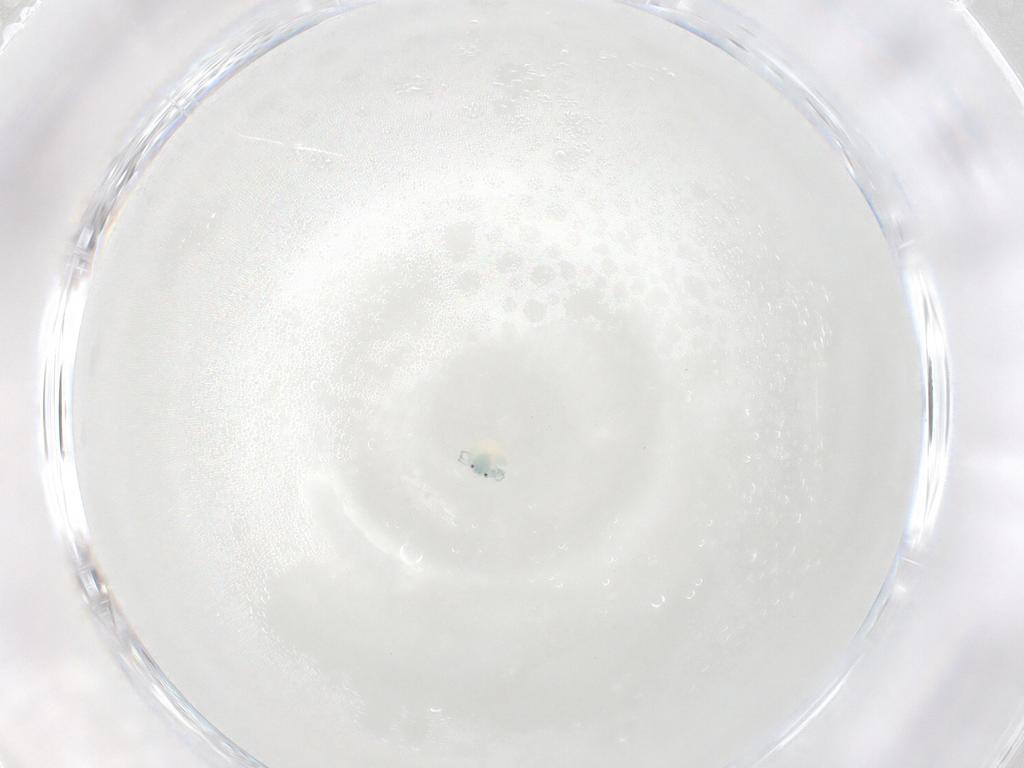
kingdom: Animalia
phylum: Arthropoda
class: Arachnida
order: Trombidiformes
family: Arrenuridae
